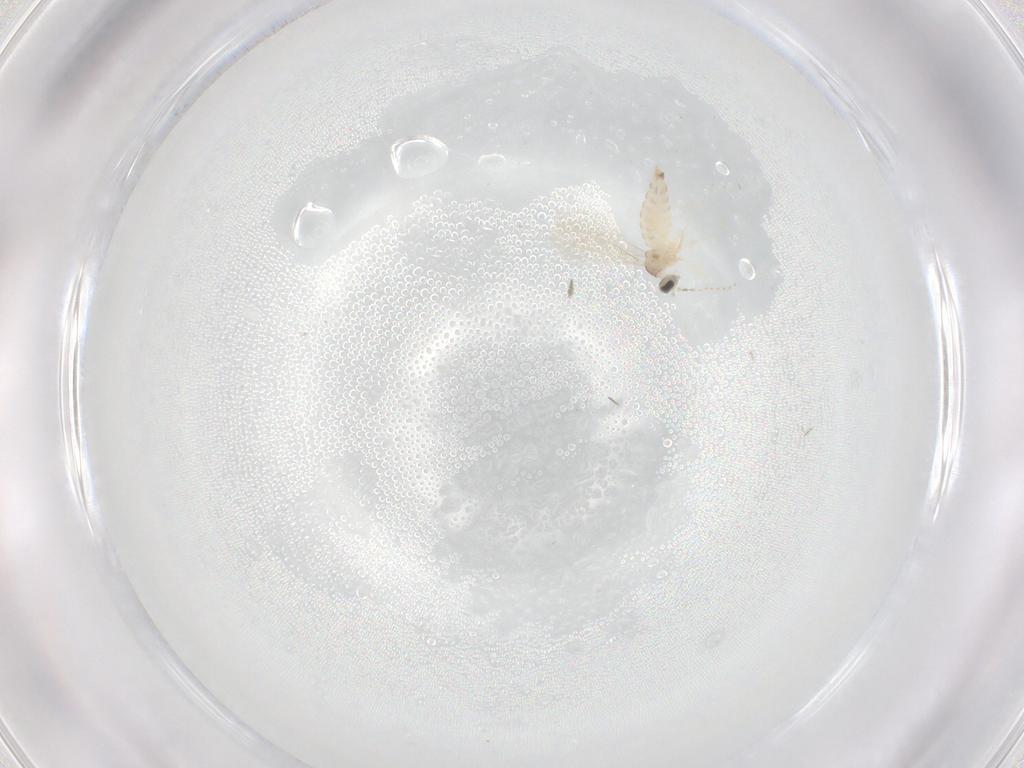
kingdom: Animalia
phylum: Arthropoda
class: Insecta
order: Diptera
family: Cecidomyiidae
